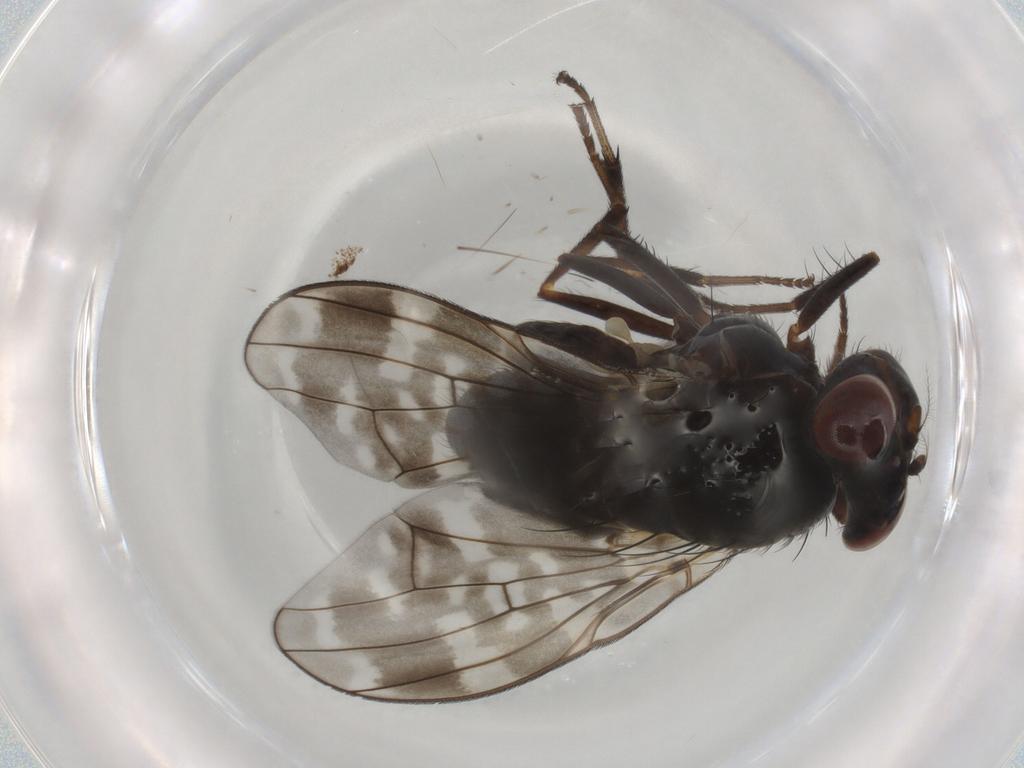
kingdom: Animalia
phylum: Arthropoda
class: Insecta
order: Diptera
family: Lauxaniidae
